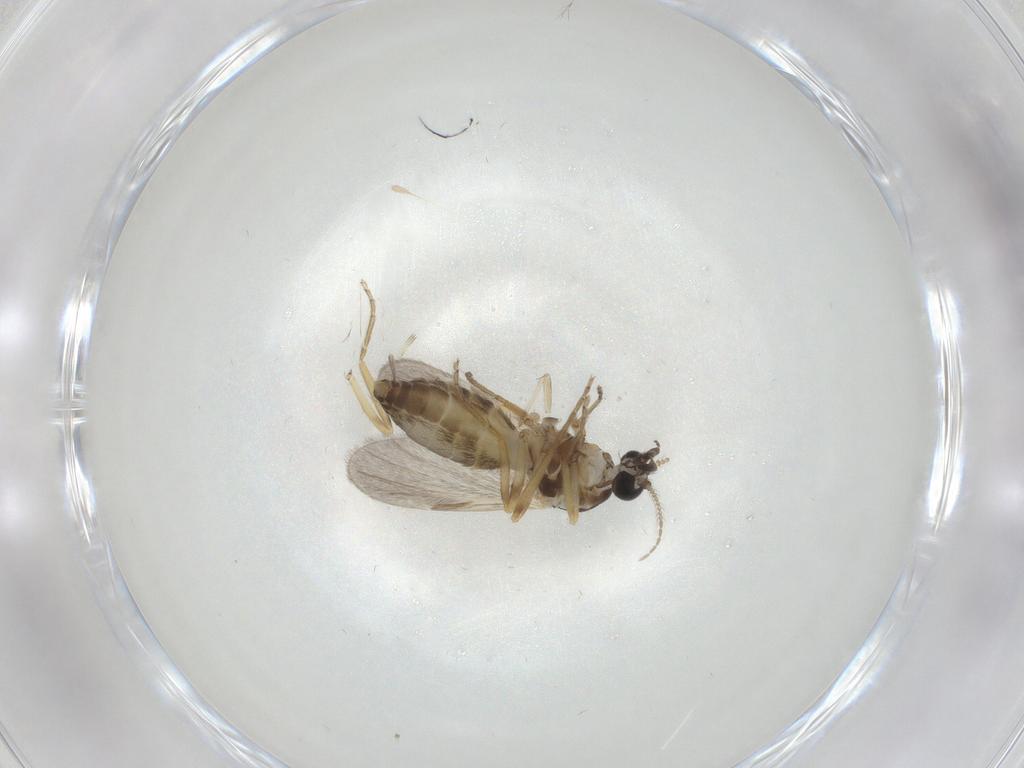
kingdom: Animalia
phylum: Arthropoda
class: Insecta
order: Diptera
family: Ceratopogonidae
